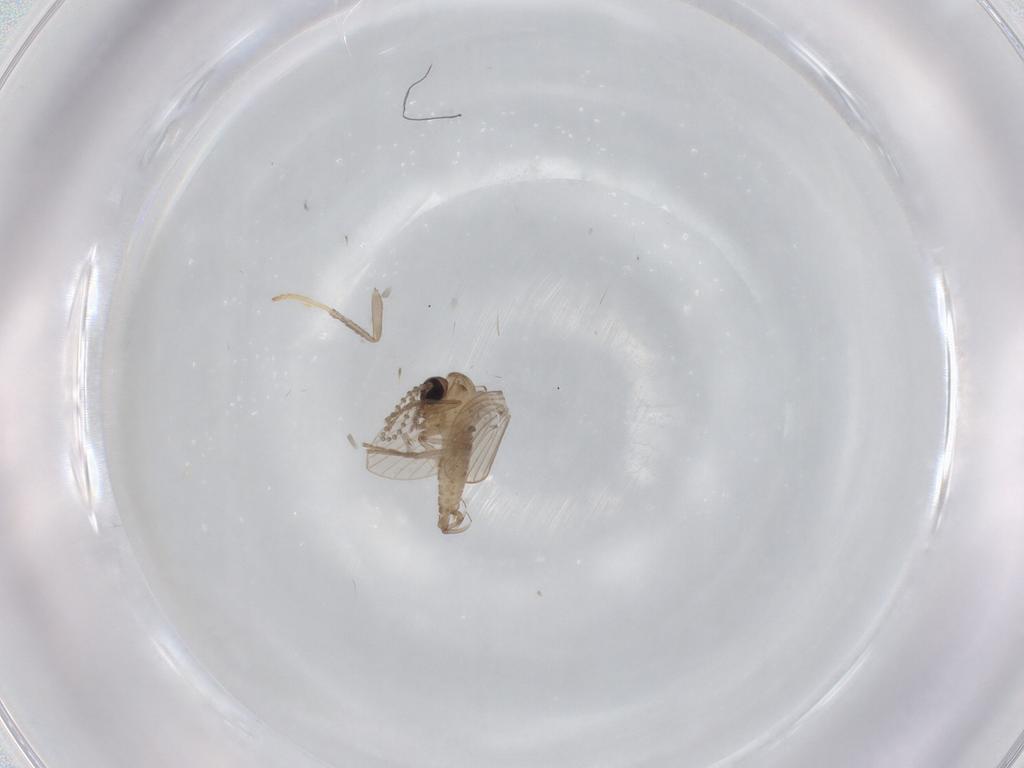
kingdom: Animalia
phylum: Arthropoda
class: Insecta
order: Diptera
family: Psychodidae
